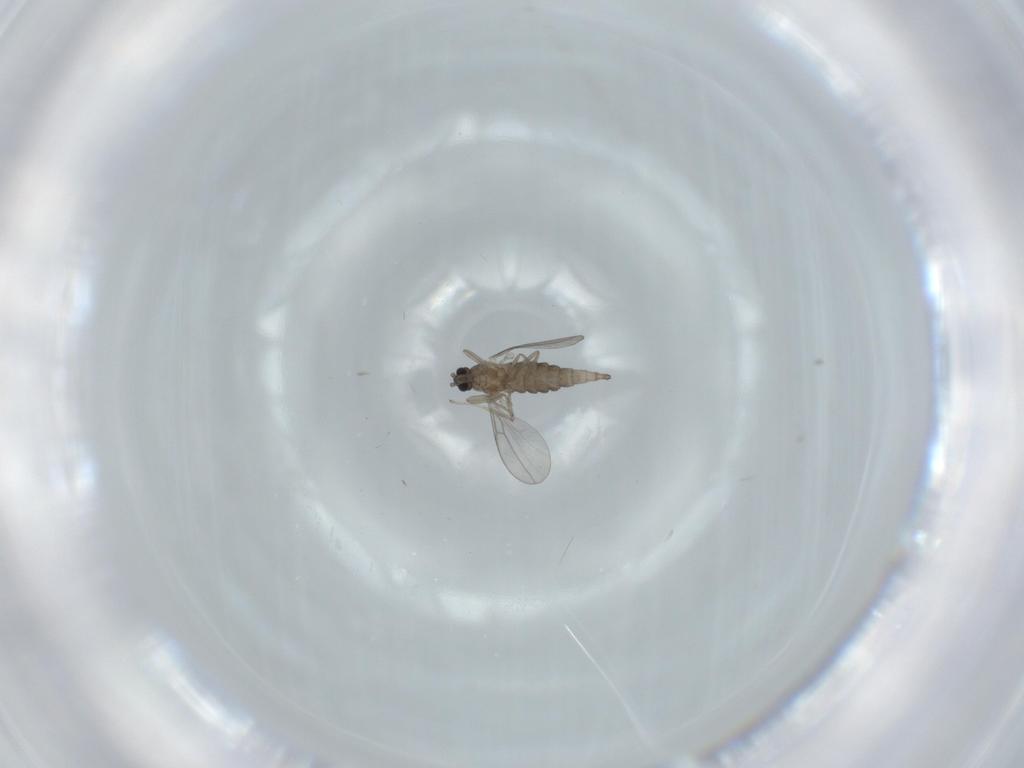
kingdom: Animalia
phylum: Arthropoda
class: Insecta
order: Diptera
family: Cecidomyiidae
